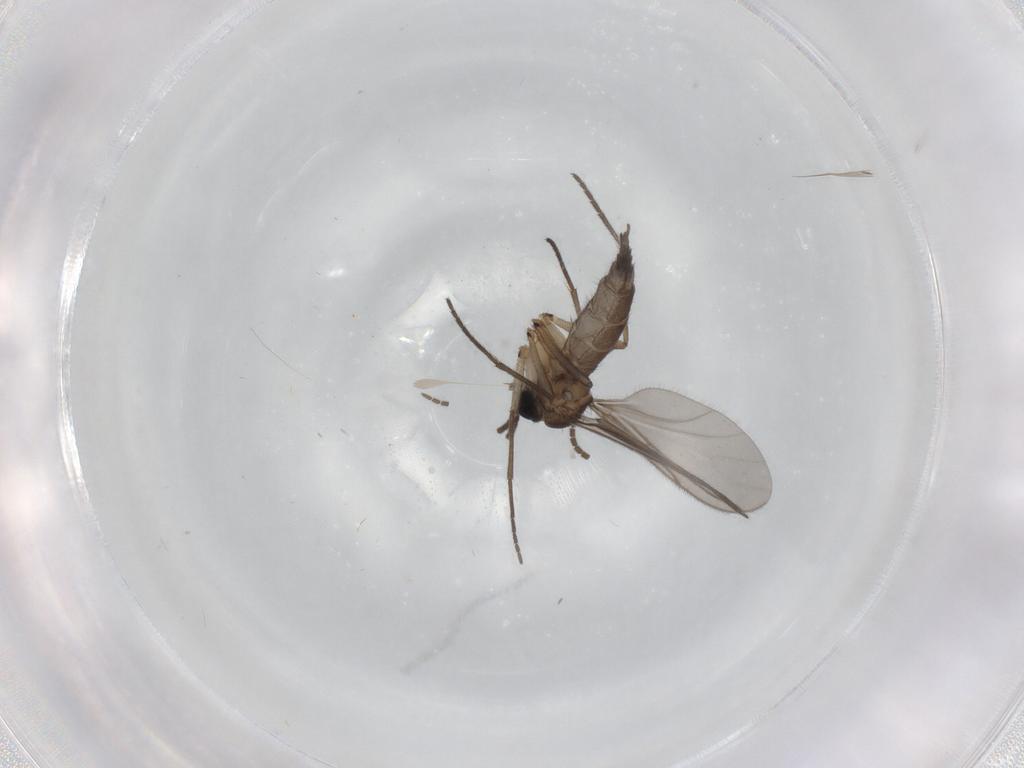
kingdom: Animalia
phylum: Arthropoda
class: Insecta
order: Diptera
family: Sciaridae
